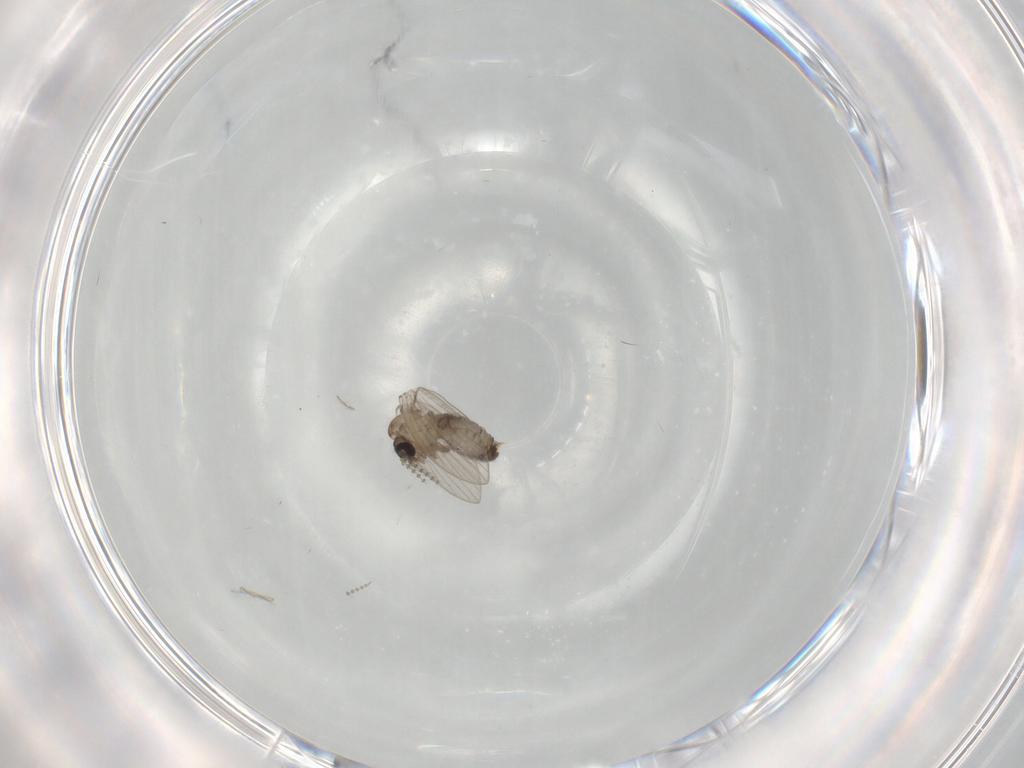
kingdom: Animalia
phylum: Arthropoda
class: Insecta
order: Diptera
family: Psychodidae
